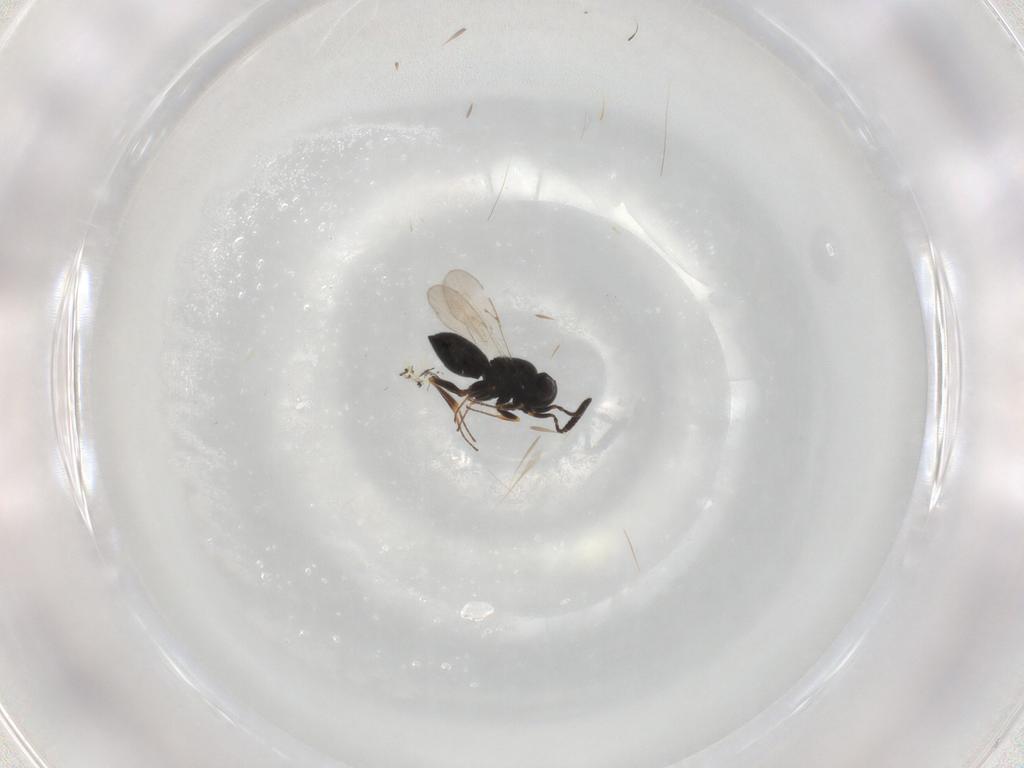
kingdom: Animalia
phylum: Arthropoda
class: Insecta
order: Hymenoptera
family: Scelionidae
